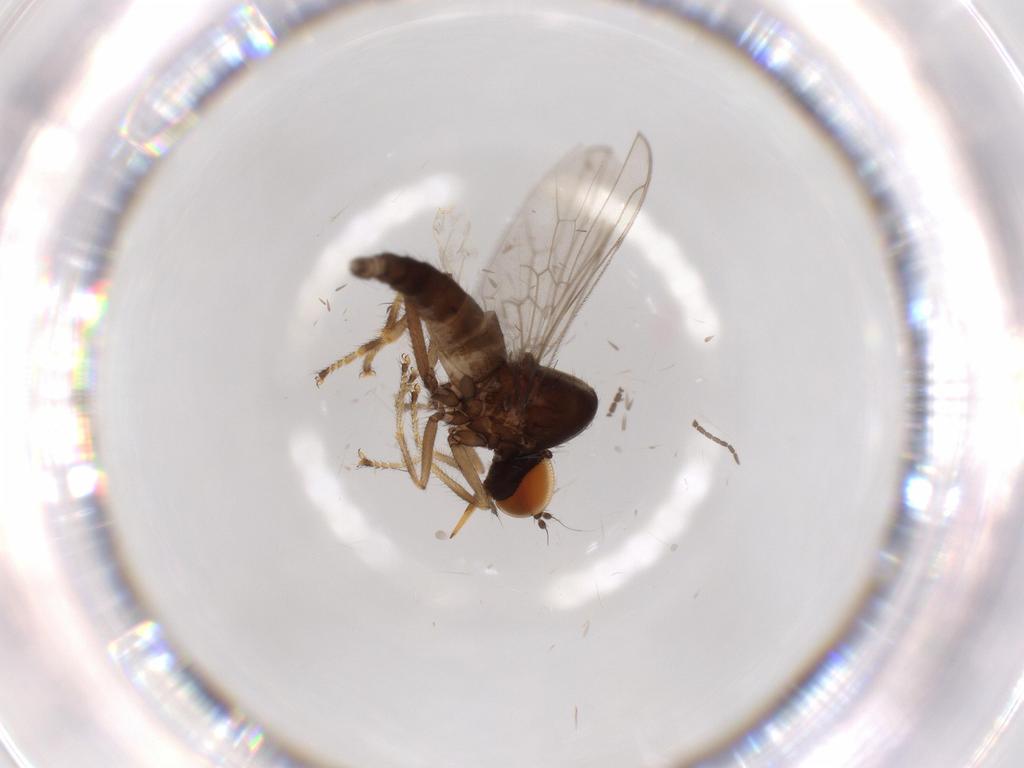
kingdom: Animalia
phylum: Arthropoda
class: Insecta
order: Diptera
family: Hybotidae
